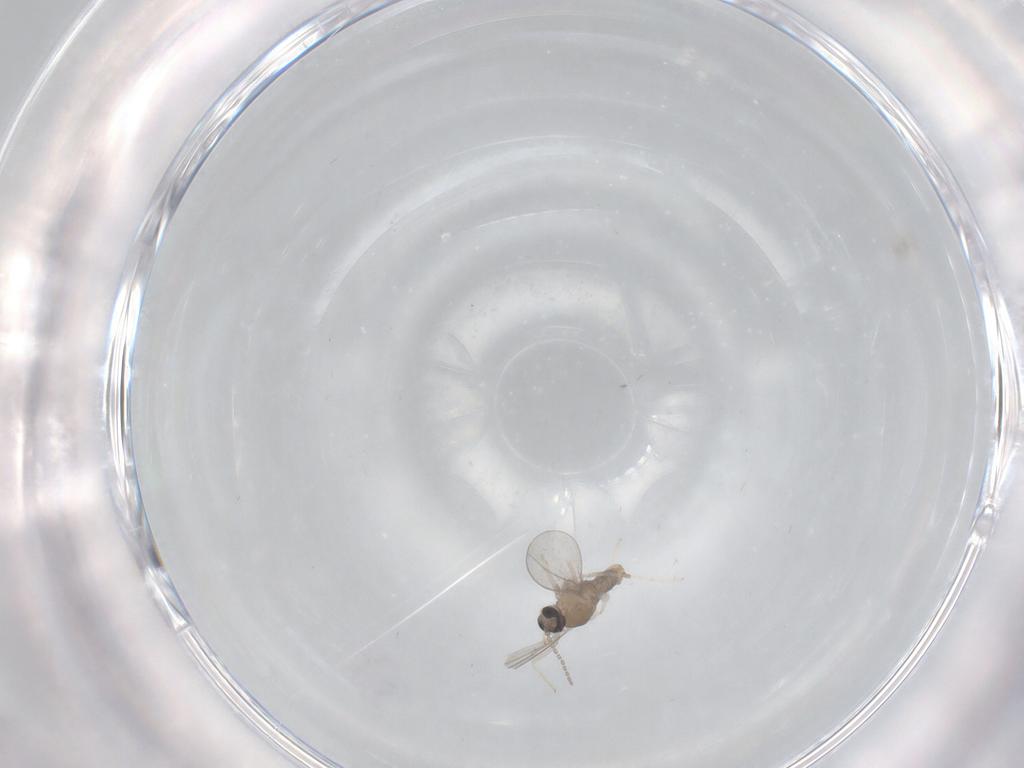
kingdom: Animalia
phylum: Arthropoda
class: Insecta
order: Diptera
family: Cecidomyiidae
